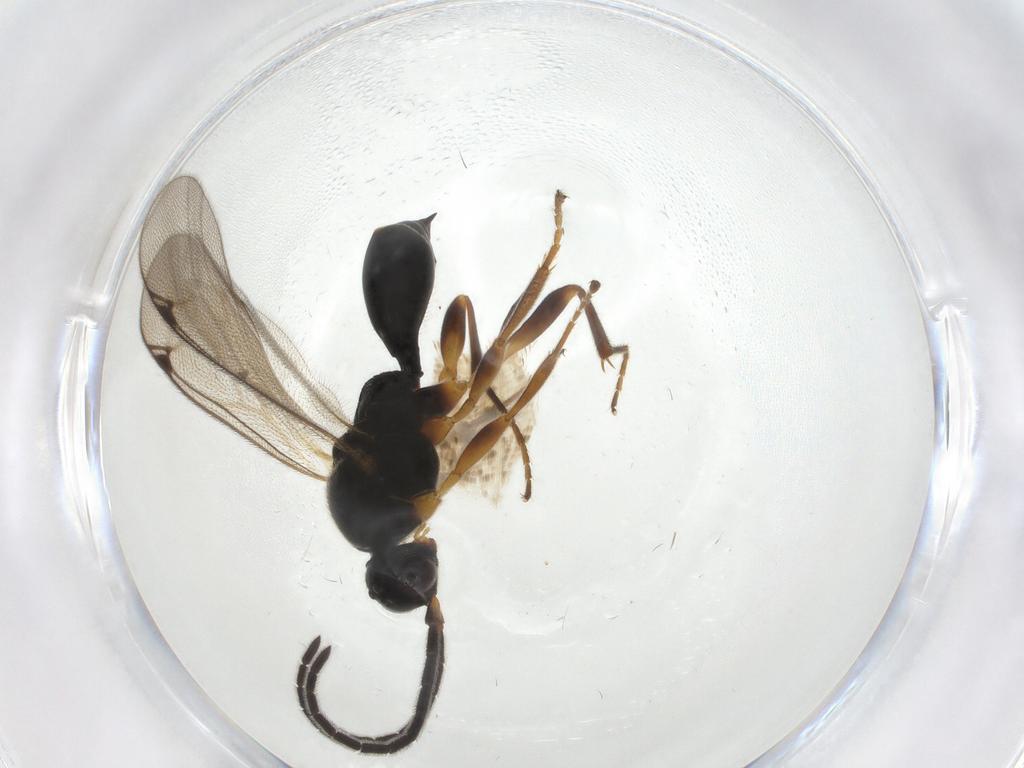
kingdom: Animalia
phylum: Arthropoda
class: Insecta
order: Hymenoptera
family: Proctotrupidae
